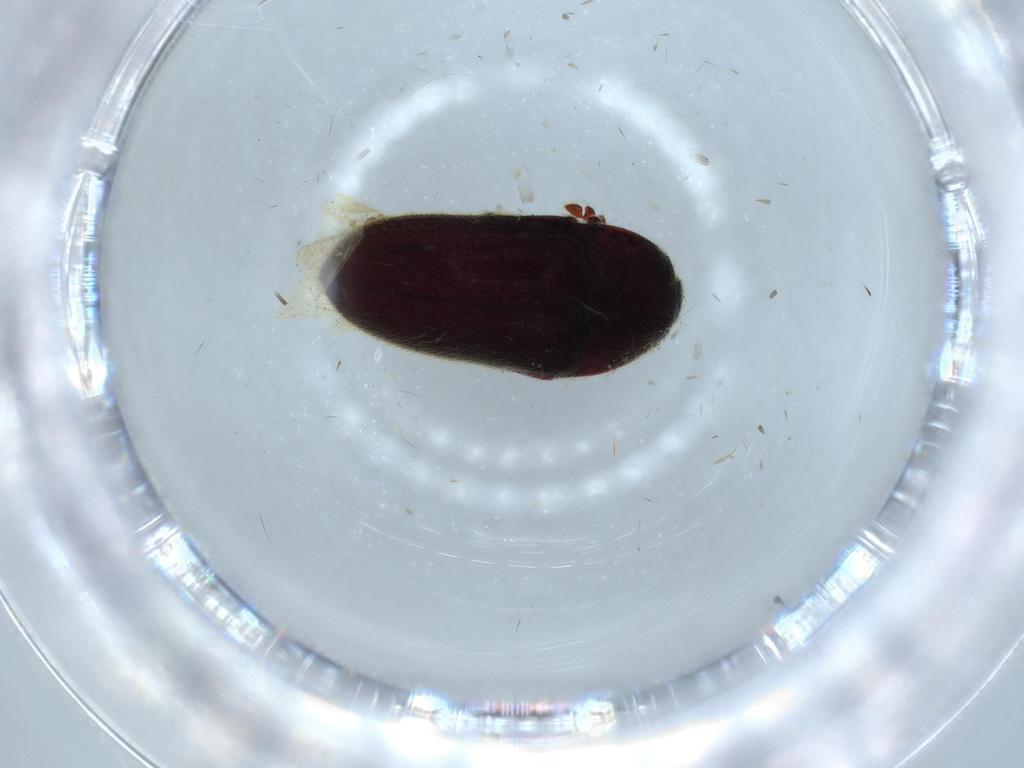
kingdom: Animalia
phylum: Arthropoda
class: Insecta
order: Coleoptera
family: Throscidae
